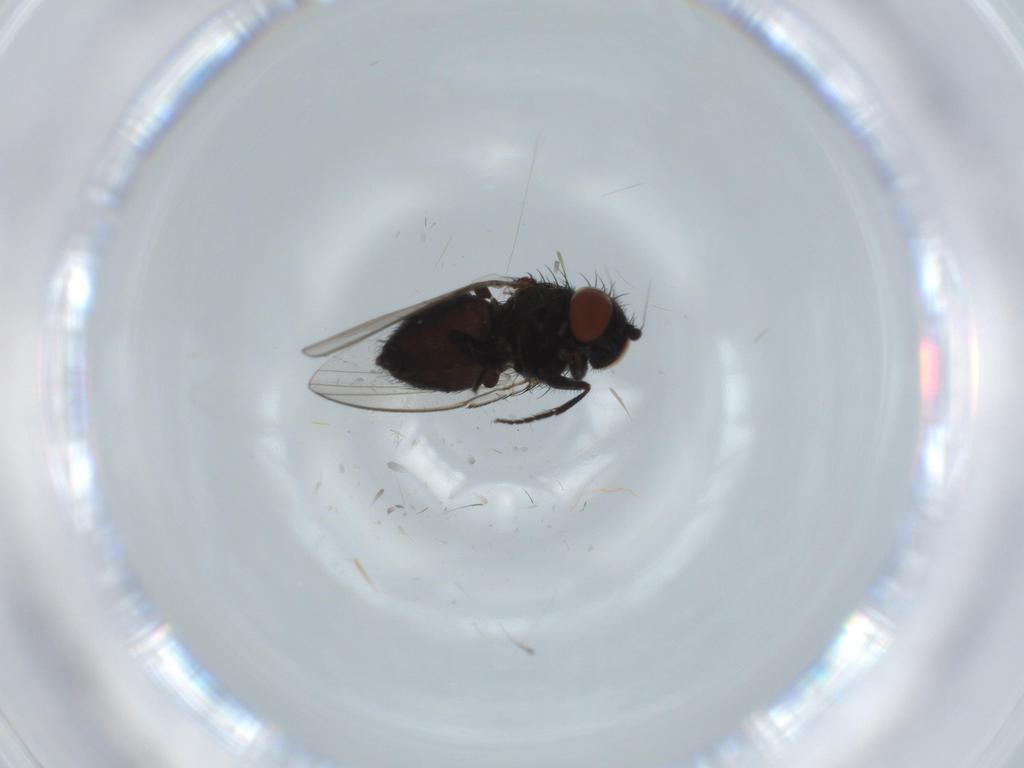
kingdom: Animalia
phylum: Arthropoda
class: Insecta
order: Diptera
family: Milichiidae
